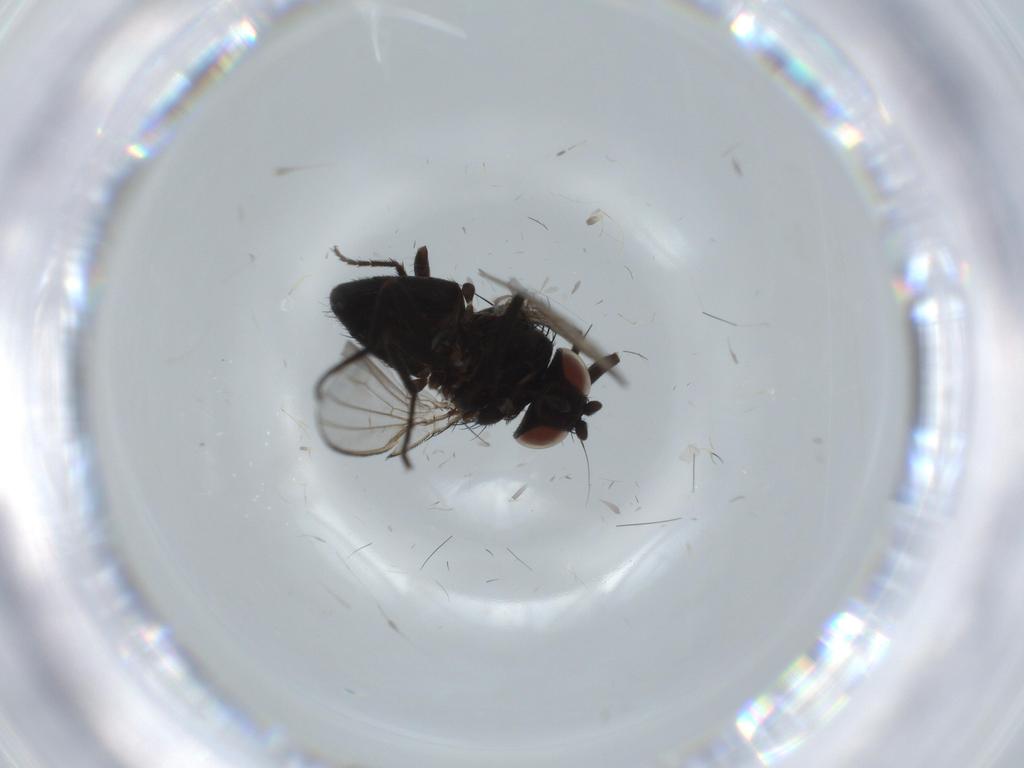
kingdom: Animalia
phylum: Arthropoda
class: Insecta
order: Diptera
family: Milichiidae
